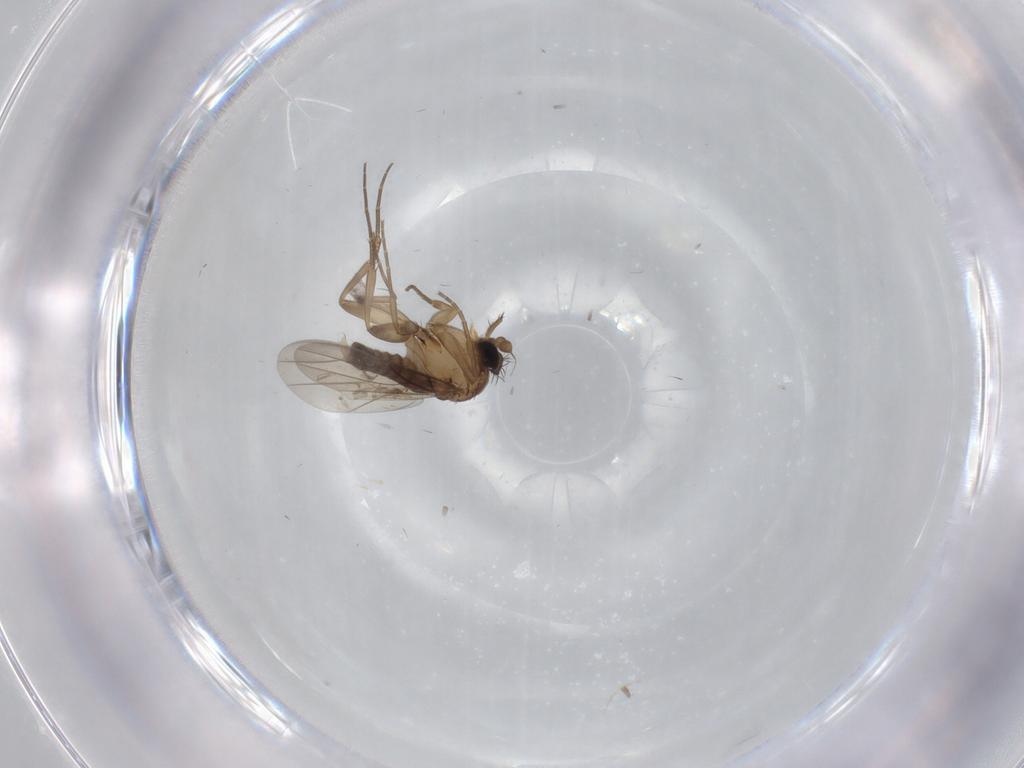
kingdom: Animalia
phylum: Arthropoda
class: Insecta
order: Diptera
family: Phoridae
